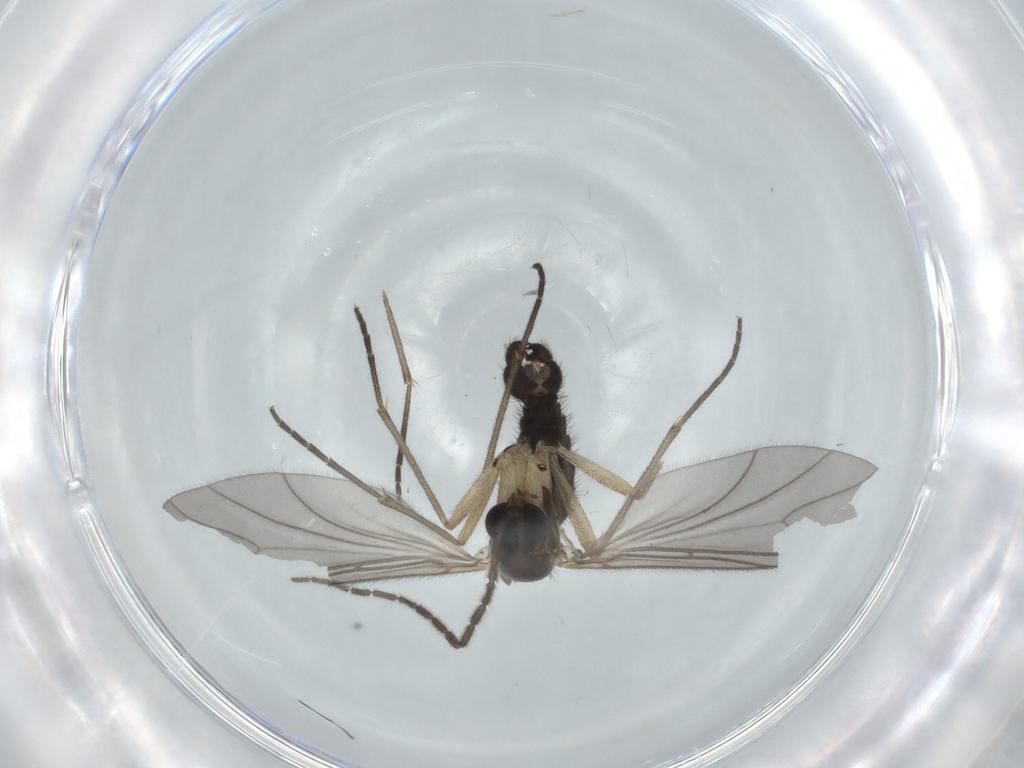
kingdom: Animalia
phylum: Arthropoda
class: Insecta
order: Diptera
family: Sciaridae
